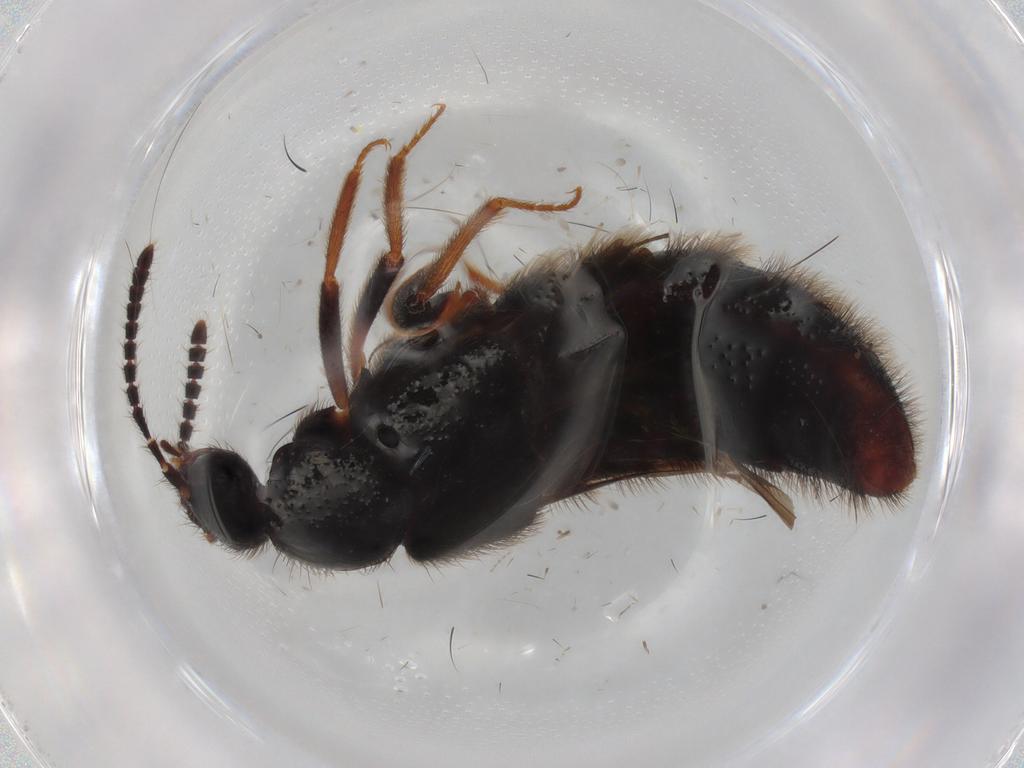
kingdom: Animalia
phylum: Arthropoda
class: Insecta
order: Coleoptera
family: Staphylinidae
